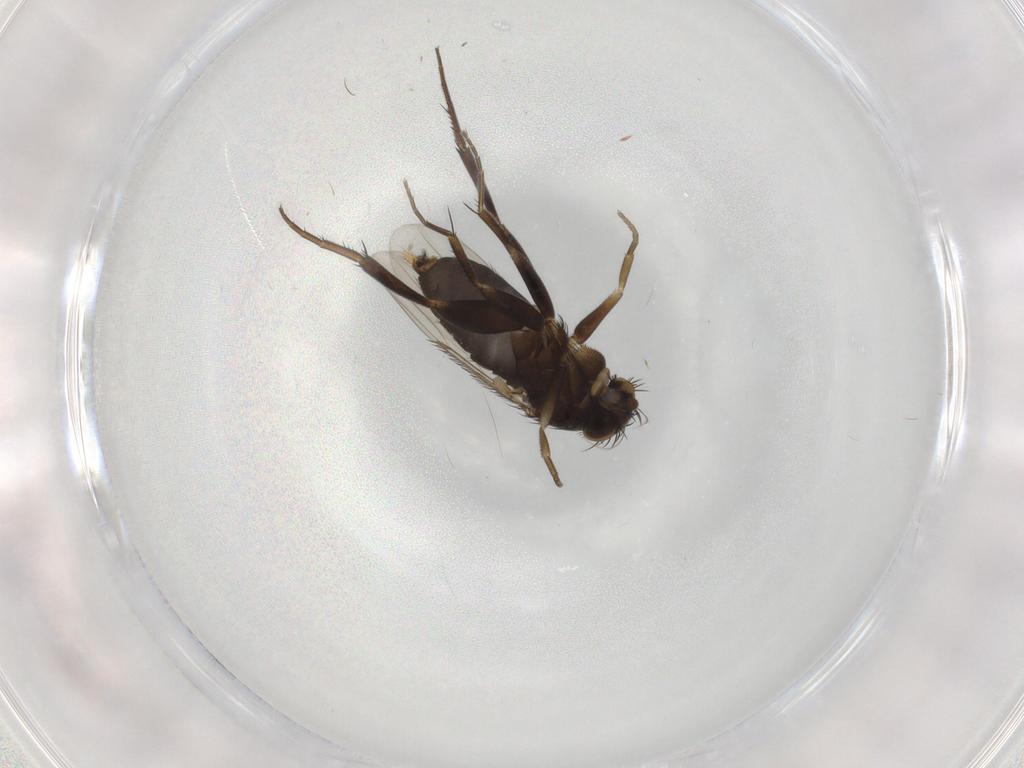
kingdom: Animalia
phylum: Arthropoda
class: Insecta
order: Diptera
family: Phoridae
